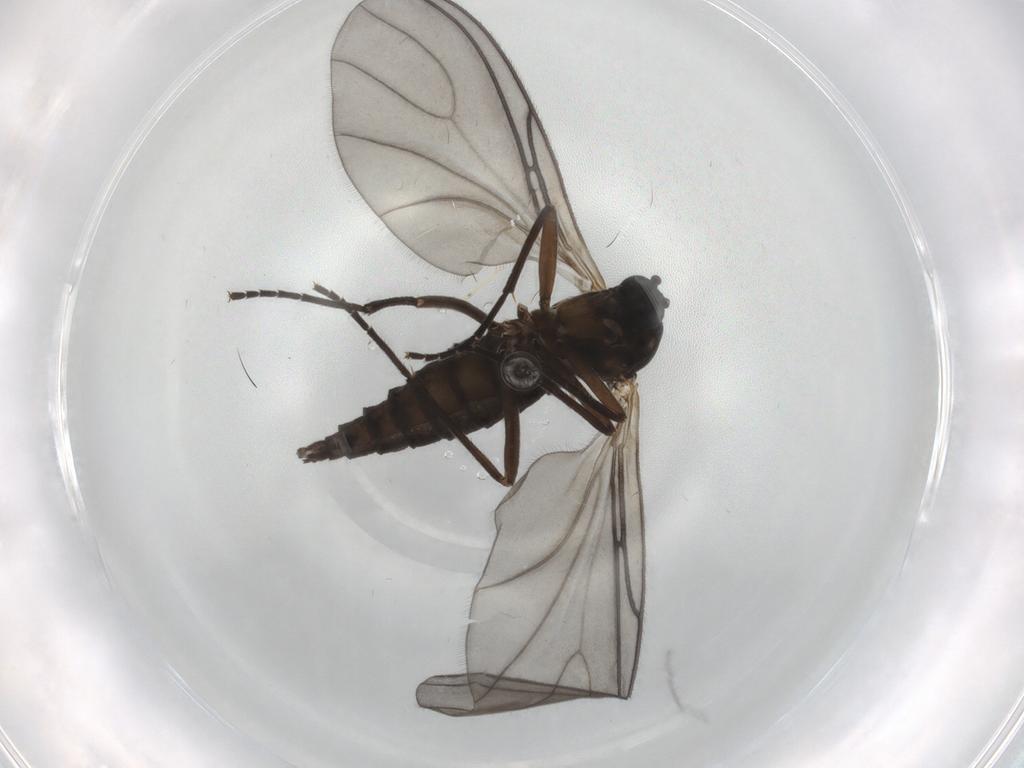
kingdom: Animalia
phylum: Arthropoda
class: Insecta
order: Diptera
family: Sciaridae
